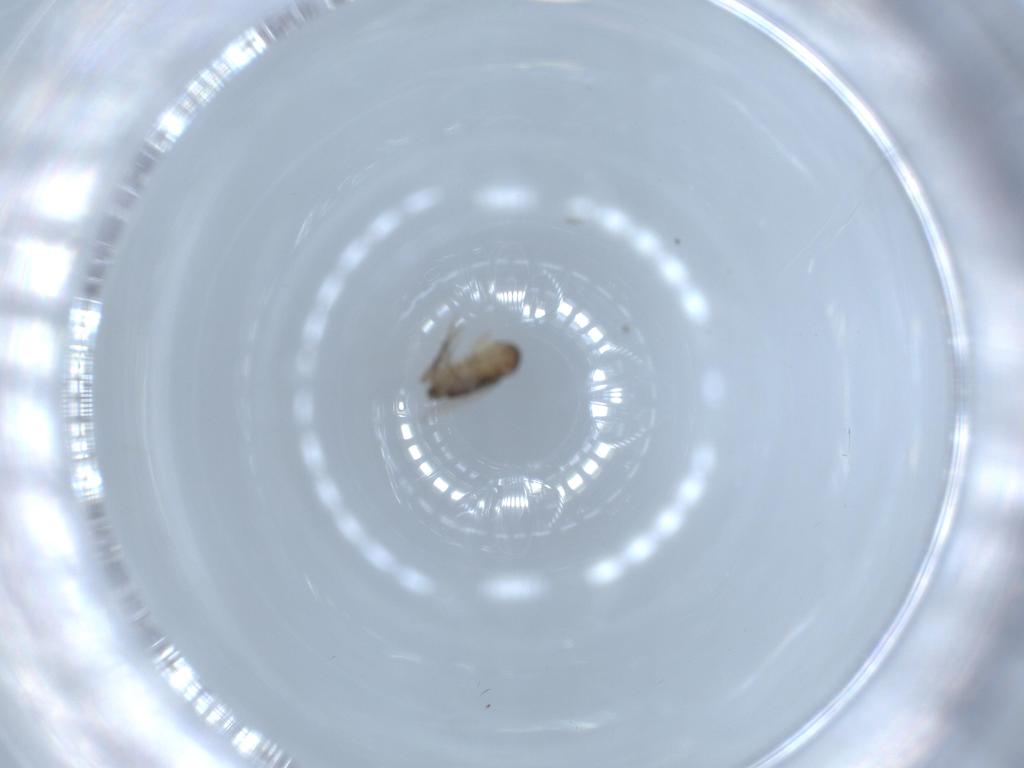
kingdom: Animalia
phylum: Arthropoda
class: Insecta
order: Diptera
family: Phoridae
